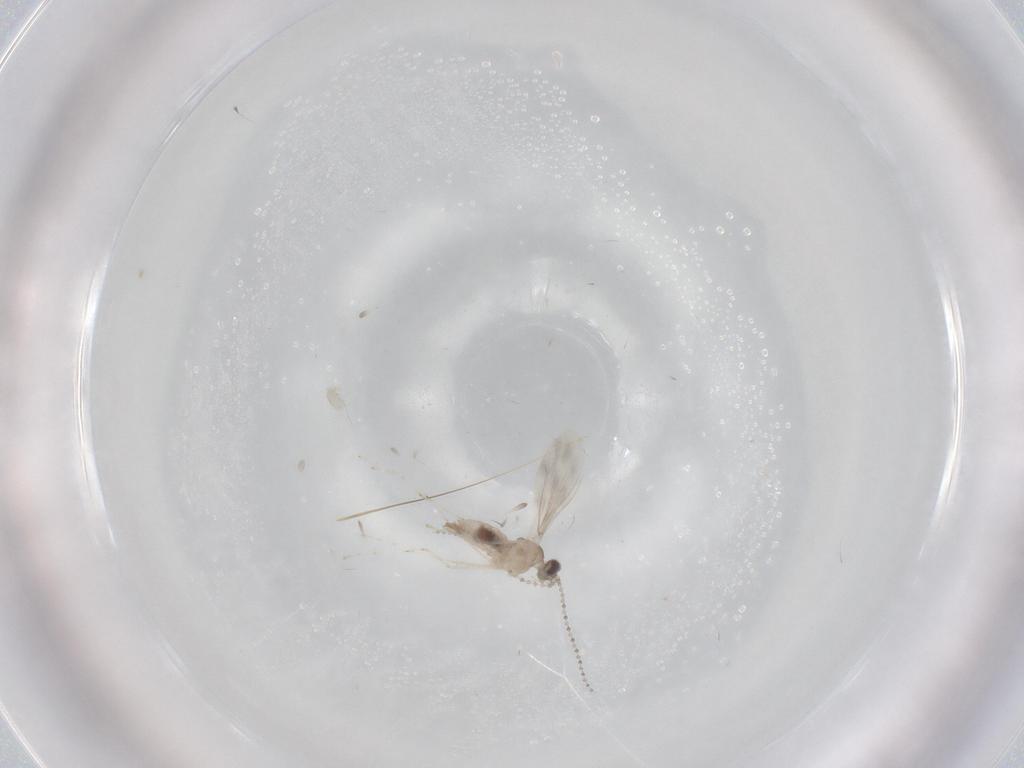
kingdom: Animalia
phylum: Arthropoda
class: Insecta
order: Diptera
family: Cecidomyiidae
